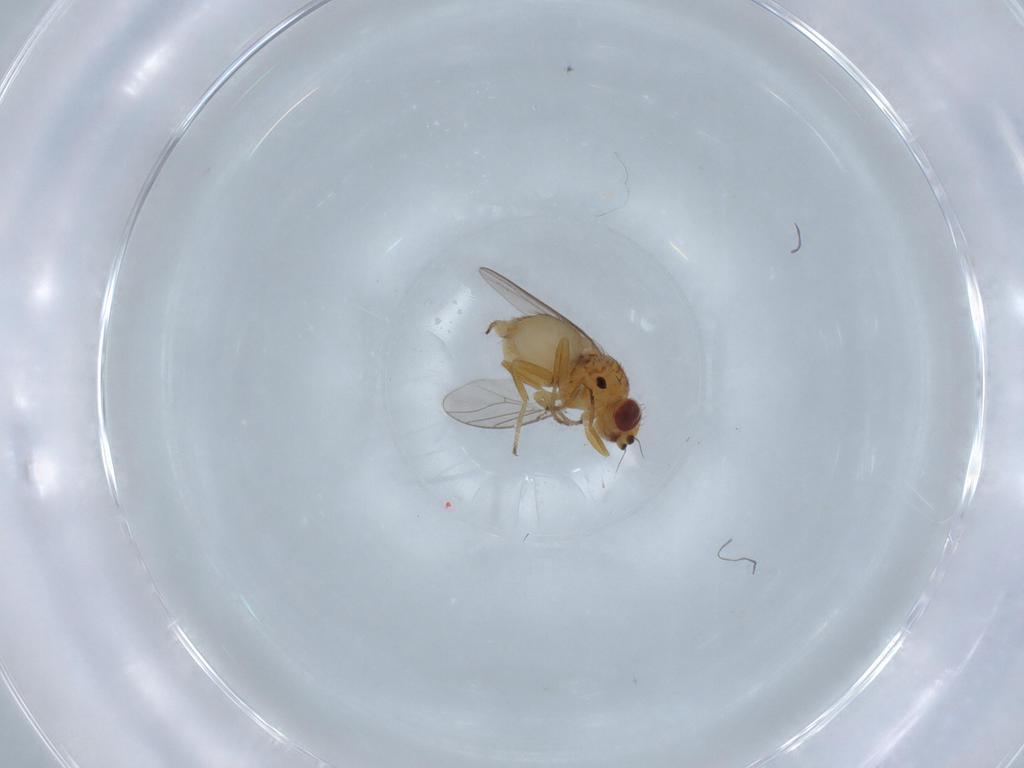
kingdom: Animalia
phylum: Arthropoda
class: Insecta
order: Diptera
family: Chloropidae
